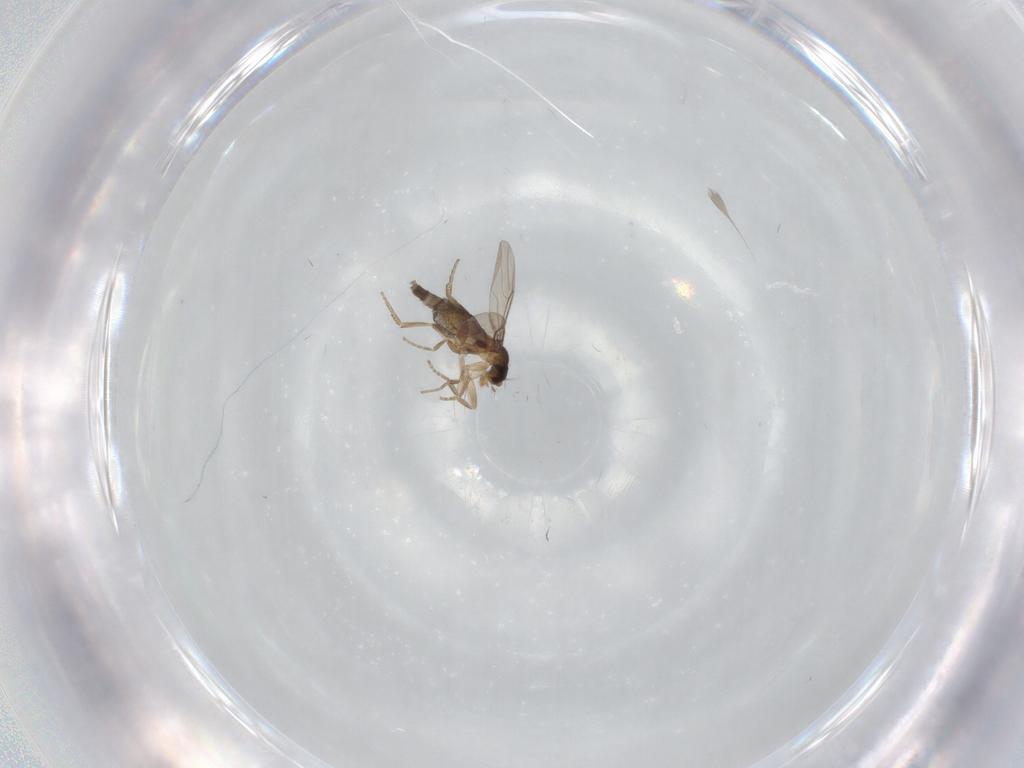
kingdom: Animalia
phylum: Arthropoda
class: Insecta
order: Diptera
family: Phoridae
